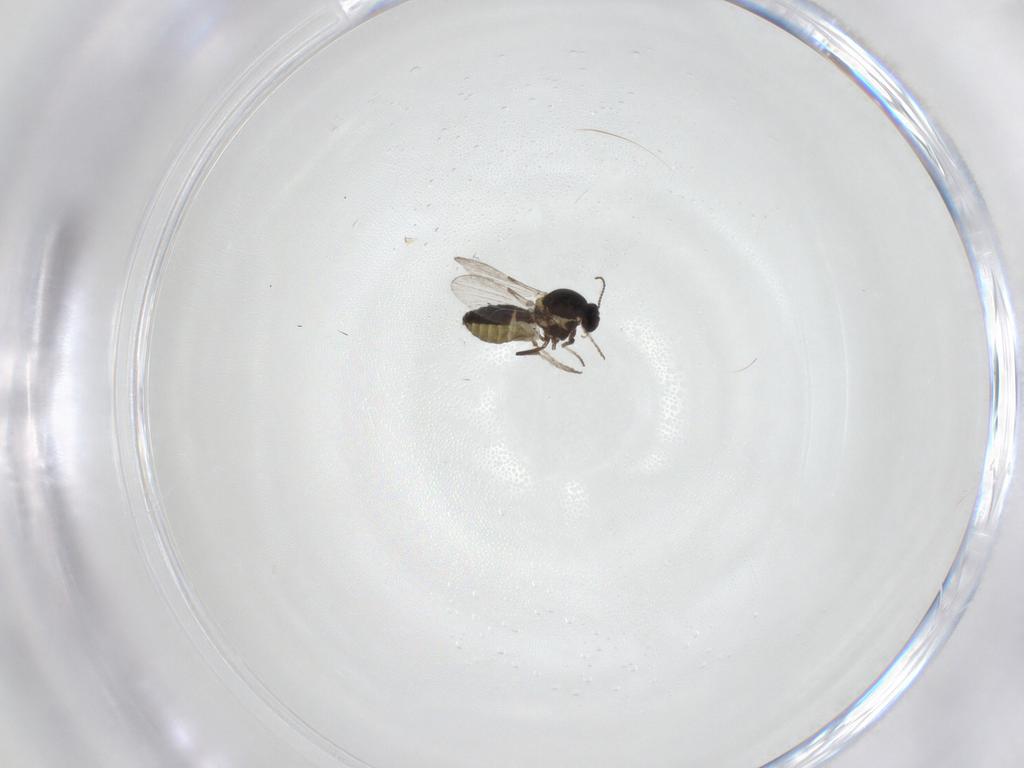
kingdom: Animalia
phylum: Arthropoda
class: Insecta
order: Diptera
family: Ceratopogonidae
